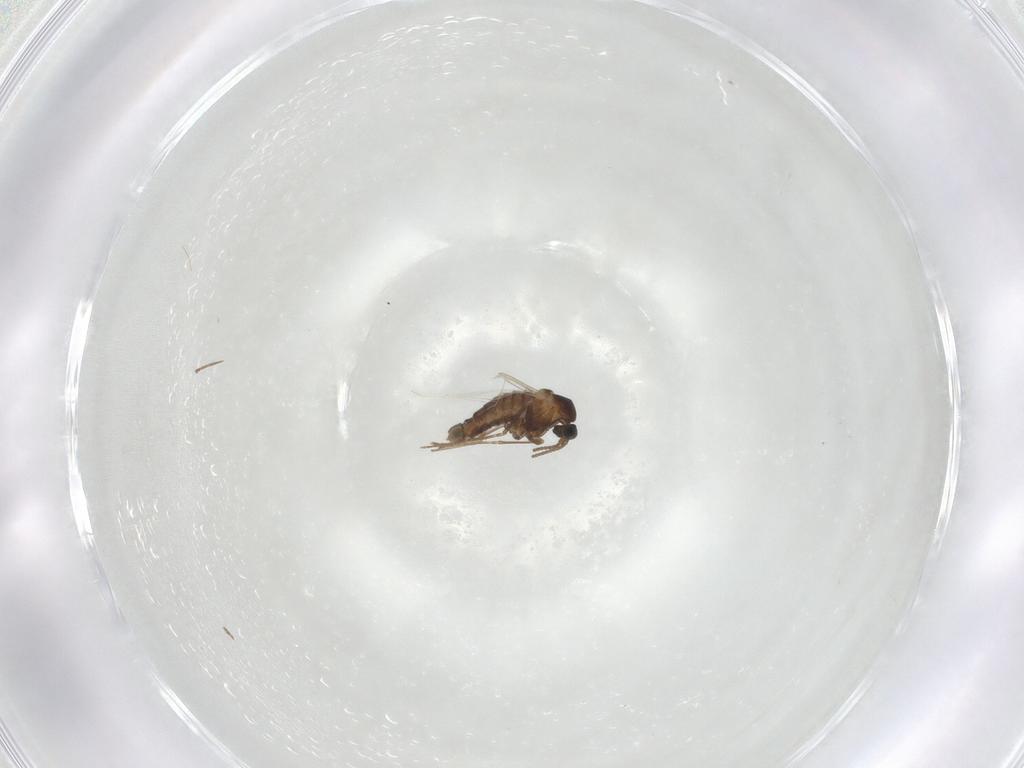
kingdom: Animalia
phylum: Arthropoda
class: Insecta
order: Diptera
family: Cecidomyiidae
